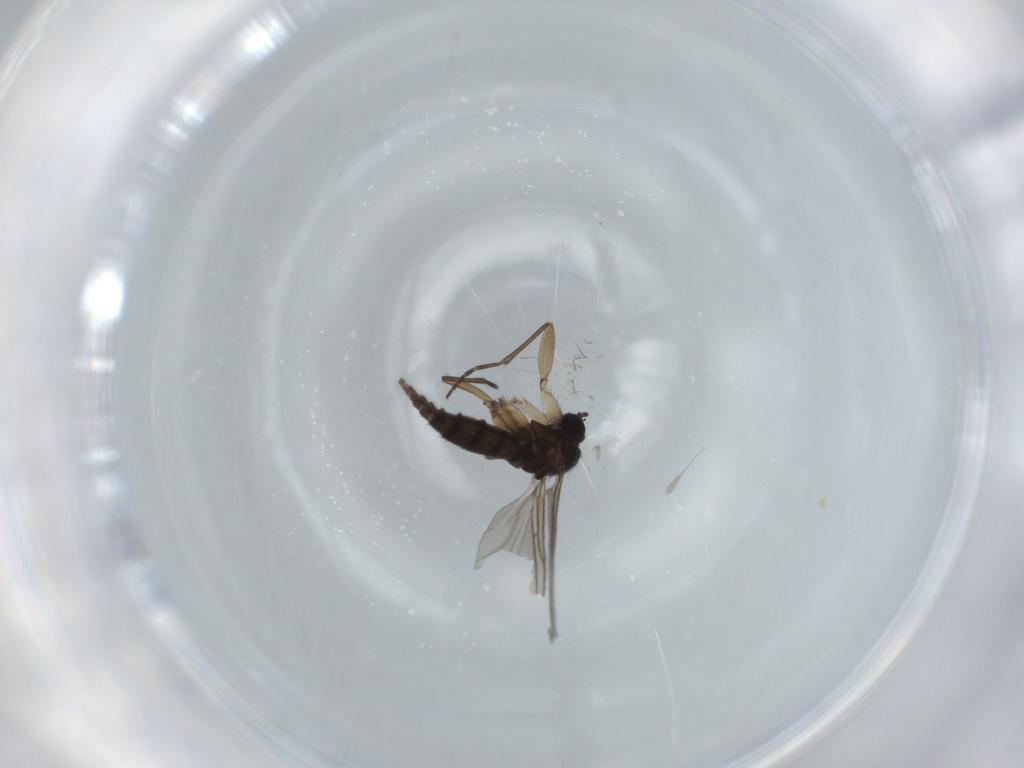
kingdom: Animalia
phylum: Arthropoda
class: Insecta
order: Diptera
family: Sciaridae
